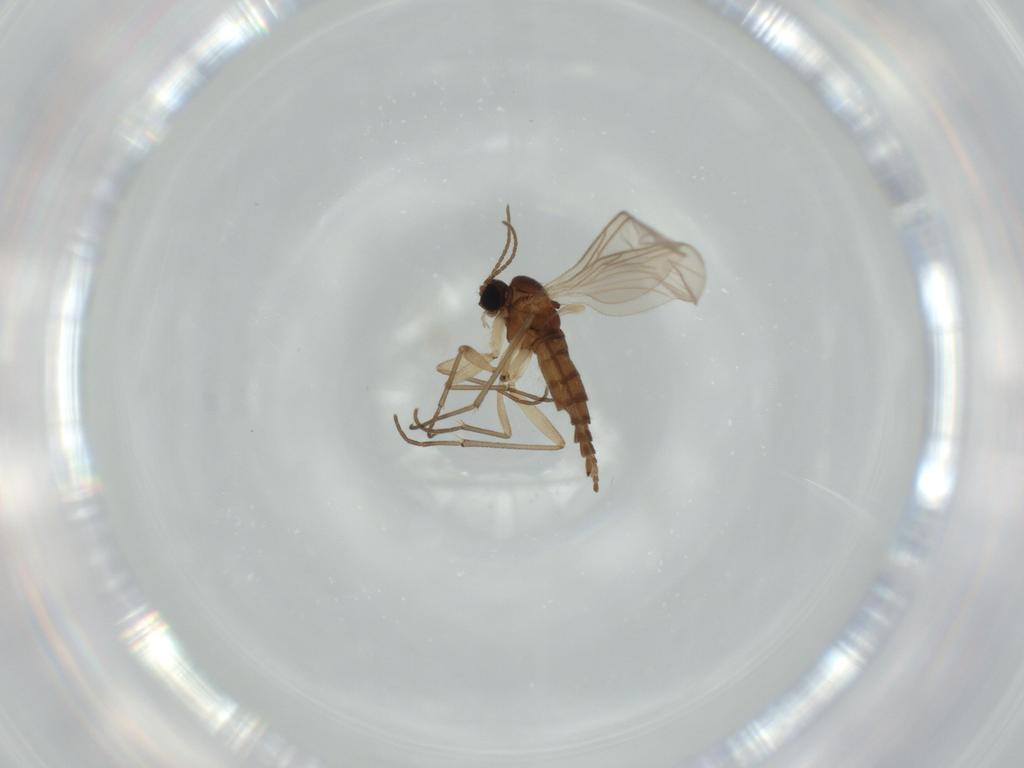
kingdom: Animalia
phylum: Arthropoda
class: Insecta
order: Diptera
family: Sciaridae
